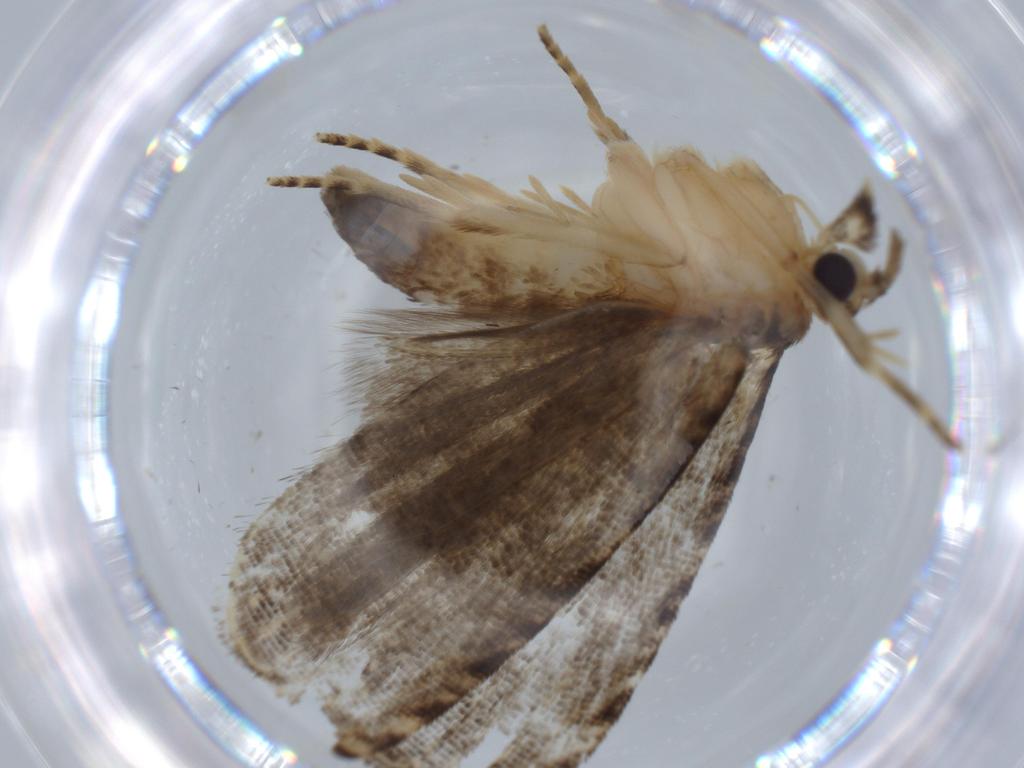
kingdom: Animalia
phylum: Arthropoda
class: Insecta
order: Lepidoptera
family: Tortricidae
